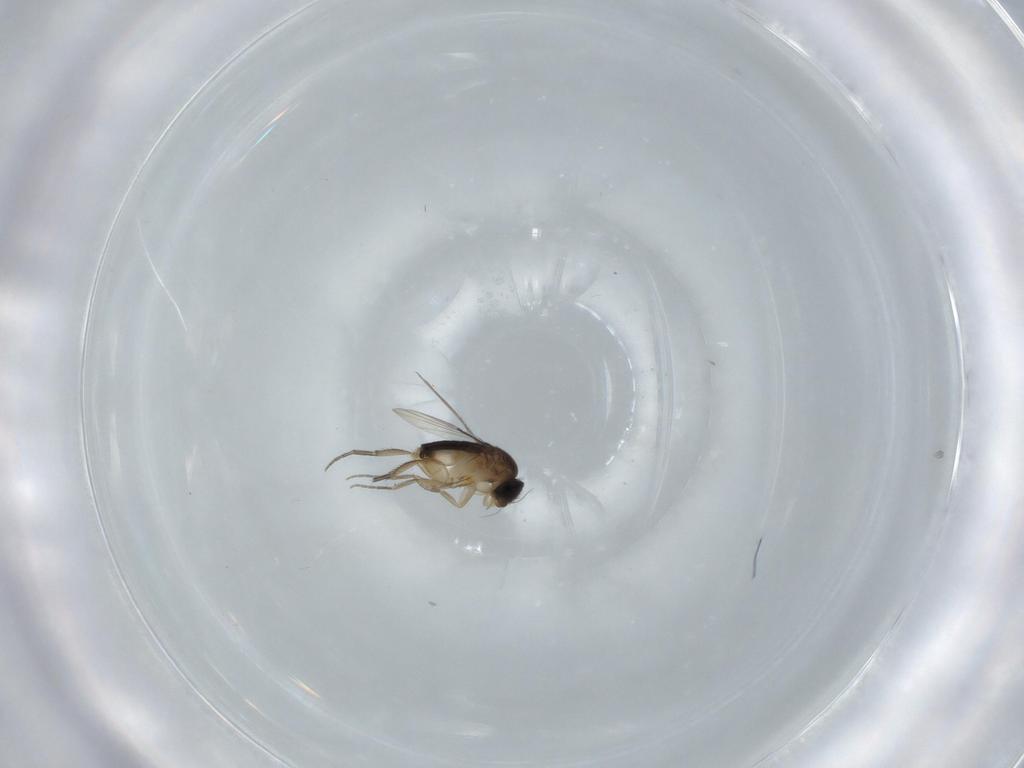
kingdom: Animalia
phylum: Arthropoda
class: Insecta
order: Diptera
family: Phoridae
